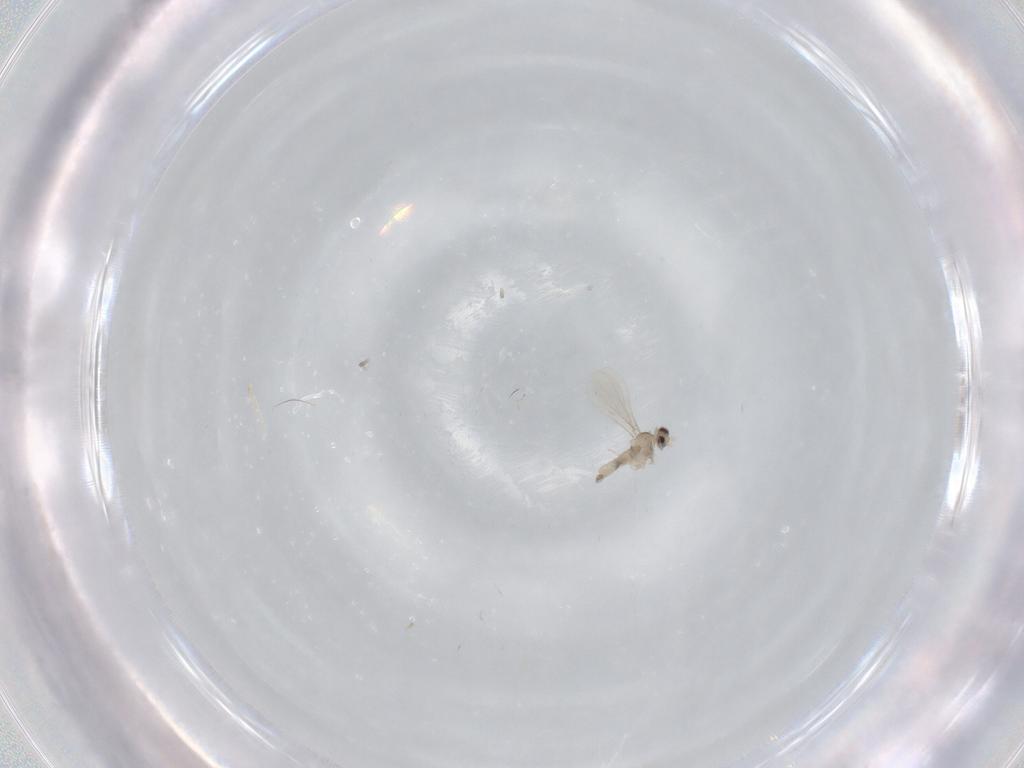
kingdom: Animalia
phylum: Arthropoda
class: Insecta
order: Diptera
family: Cecidomyiidae
